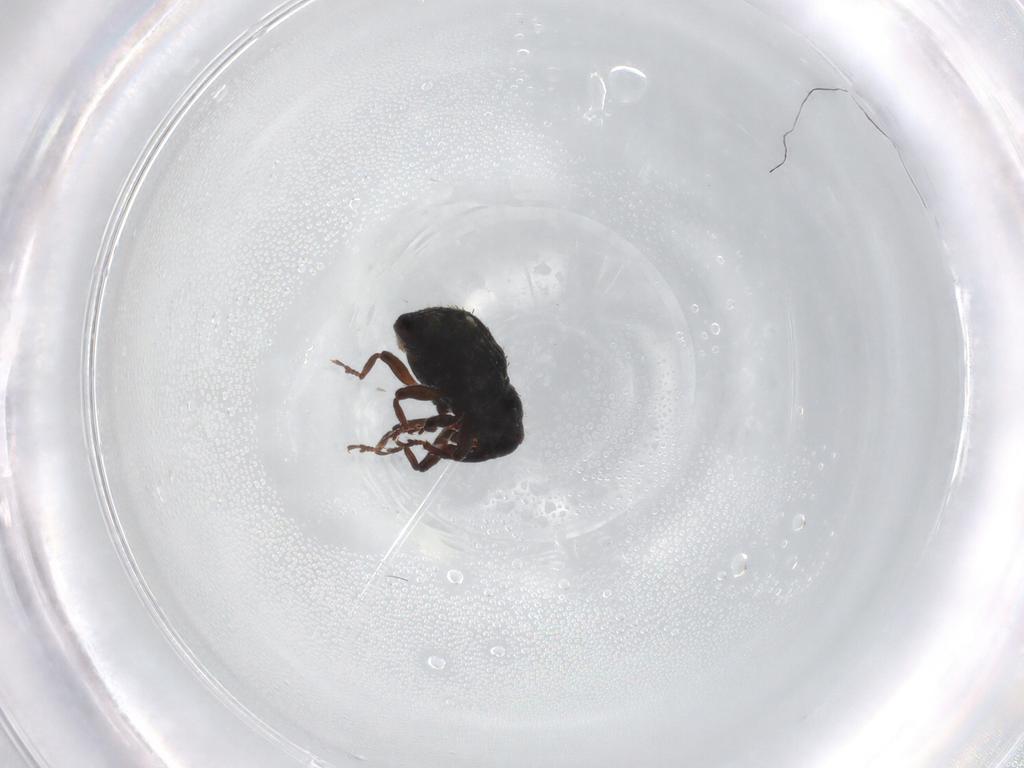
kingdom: Animalia
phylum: Arthropoda
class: Insecta
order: Coleoptera
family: Curculionidae
